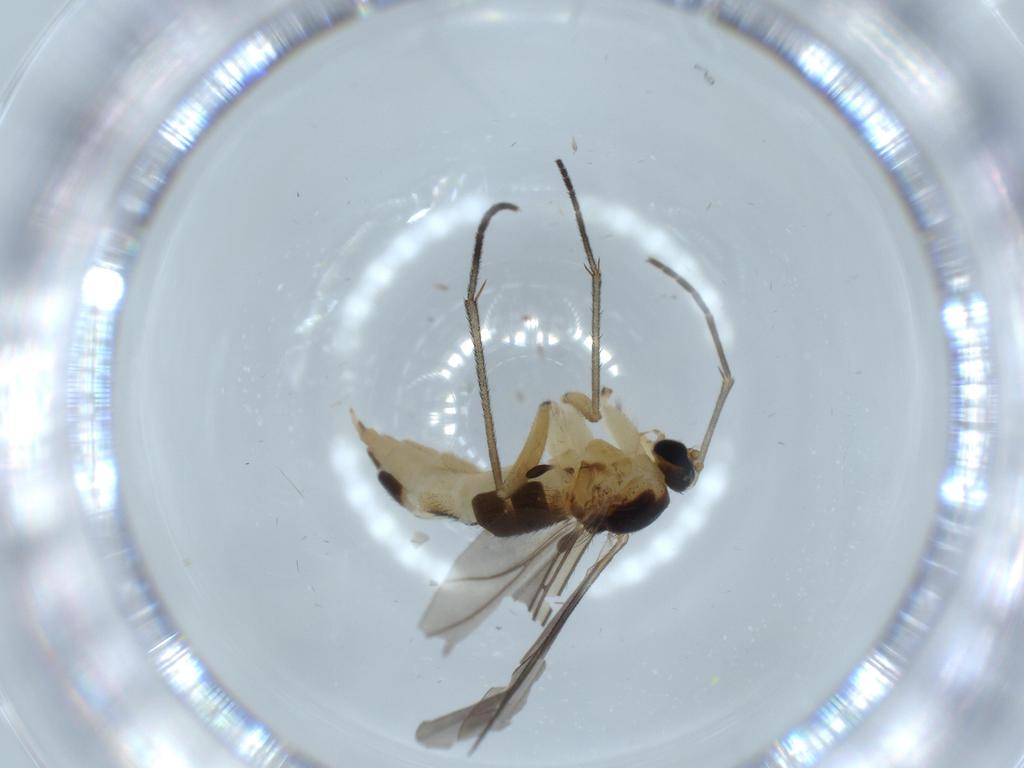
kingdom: Animalia
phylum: Arthropoda
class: Insecta
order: Diptera
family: Sciaridae
